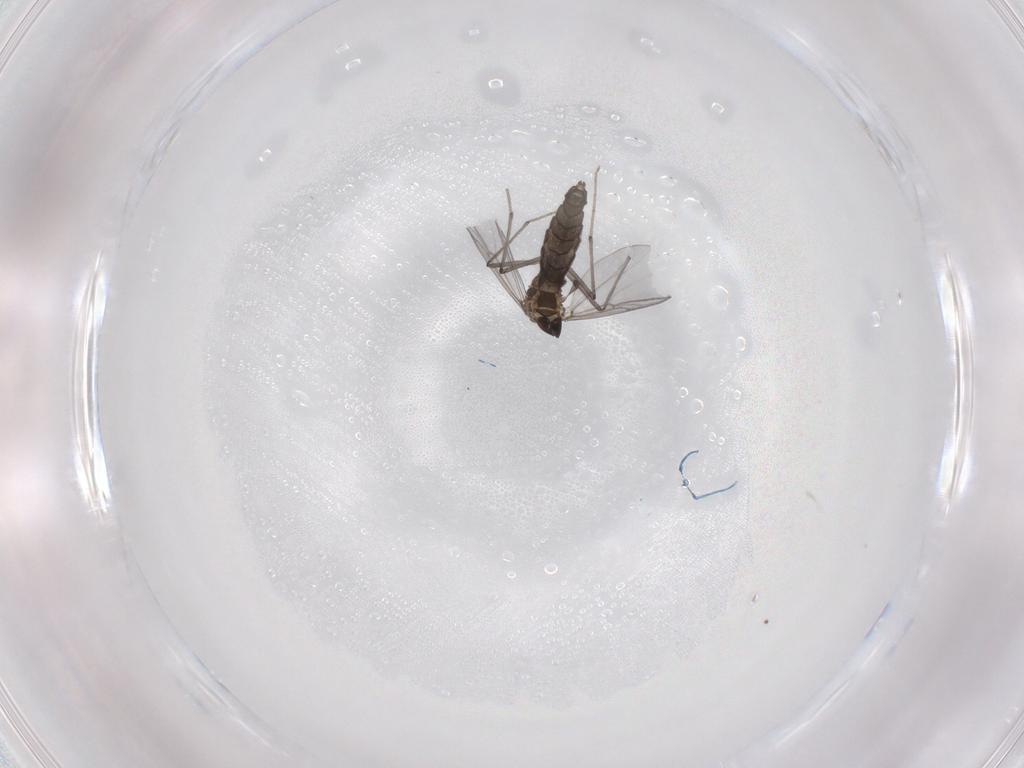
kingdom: Animalia
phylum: Arthropoda
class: Insecta
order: Diptera
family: Chironomidae
